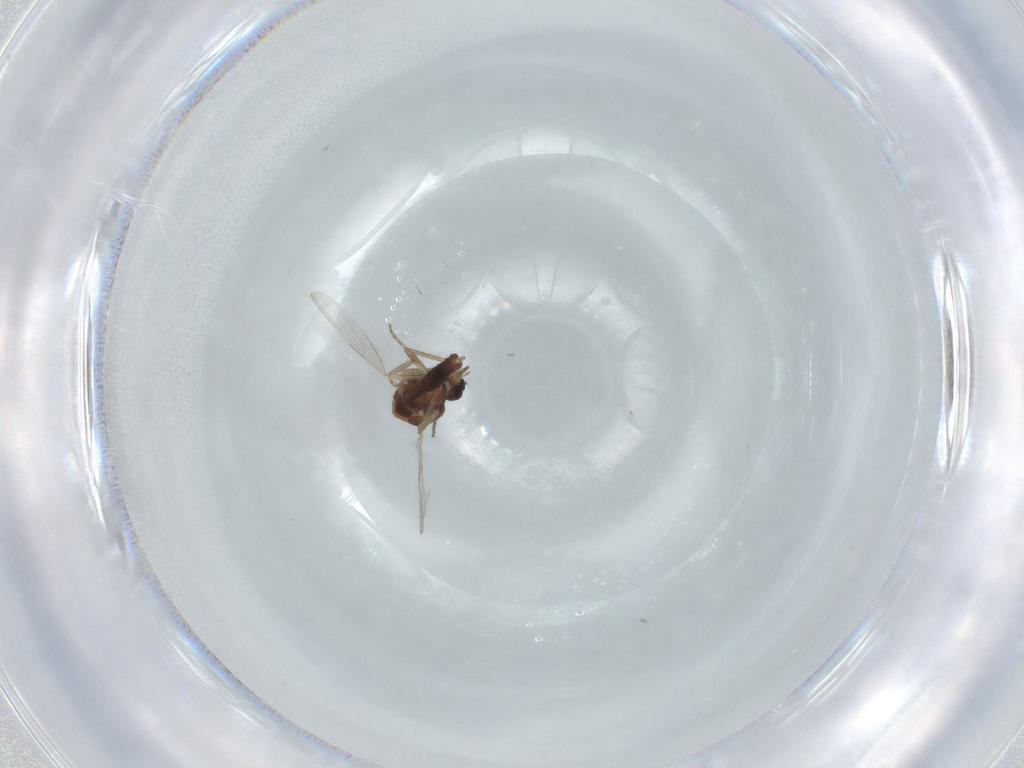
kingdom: Animalia
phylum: Arthropoda
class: Insecta
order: Diptera
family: Ceratopogonidae
